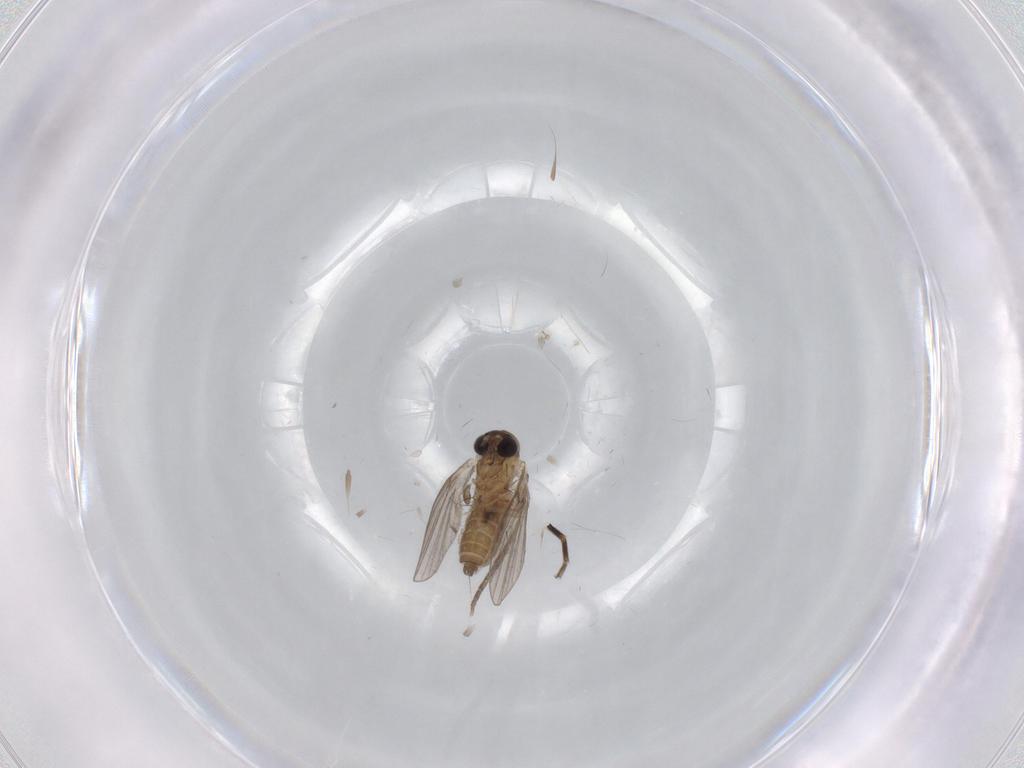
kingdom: Animalia
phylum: Arthropoda
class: Insecta
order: Diptera
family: Cecidomyiidae
